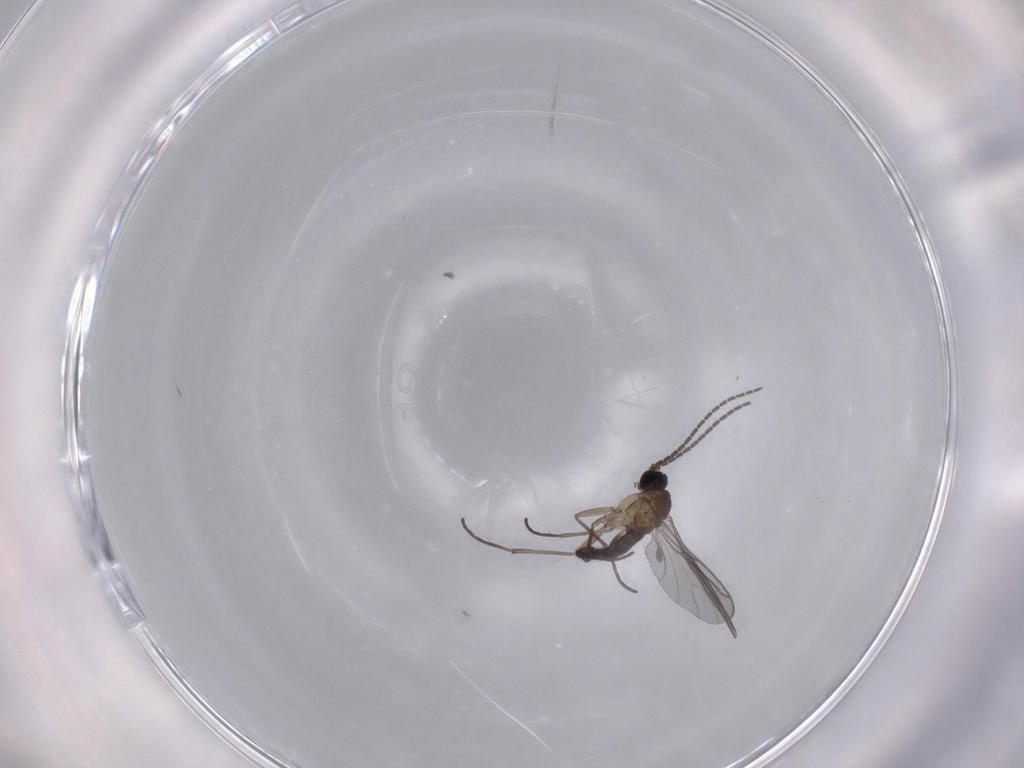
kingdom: Animalia
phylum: Arthropoda
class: Insecta
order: Diptera
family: Sciaridae
